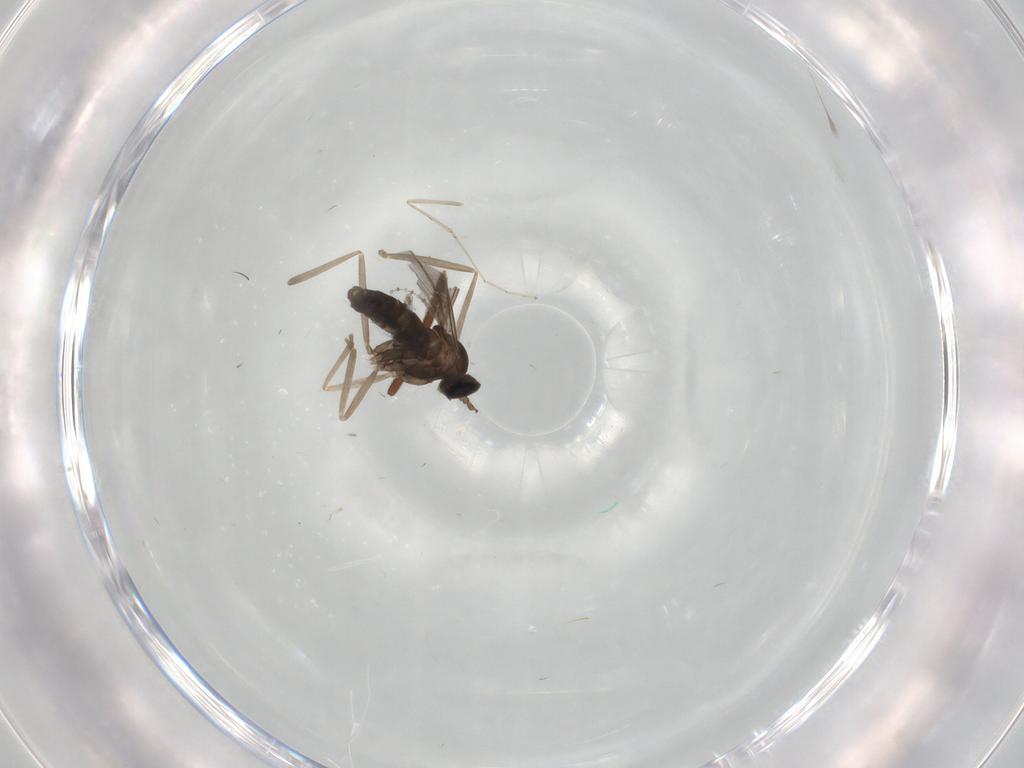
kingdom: Animalia
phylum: Arthropoda
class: Insecta
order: Diptera
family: Cecidomyiidae
